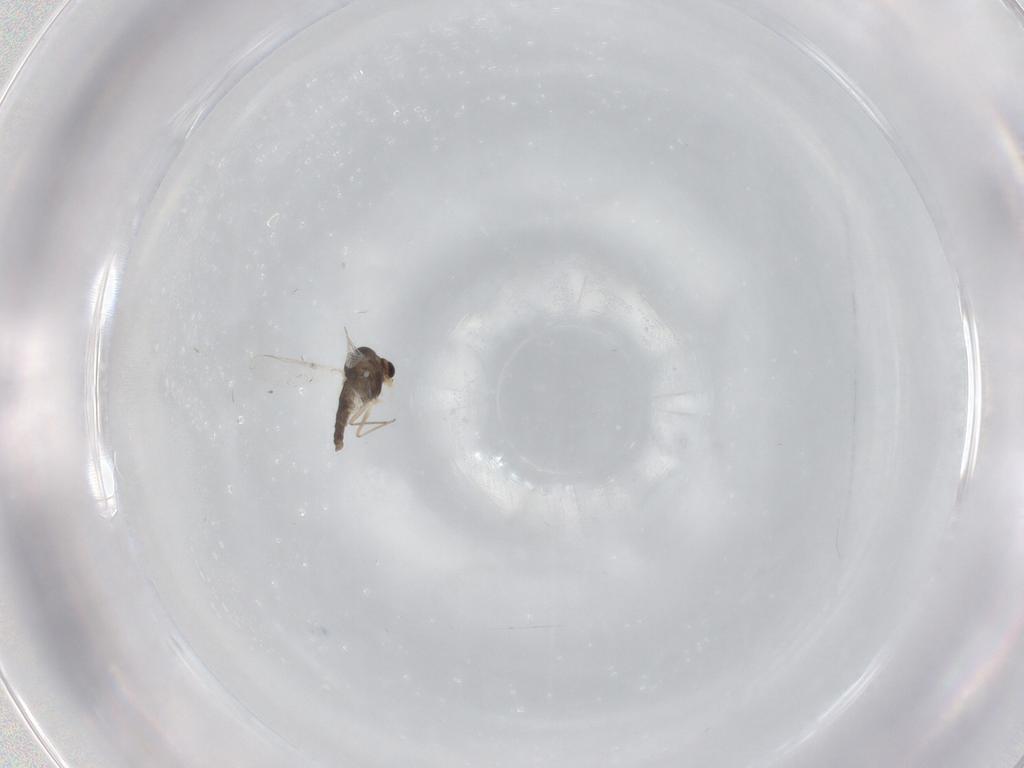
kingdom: Animalia
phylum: Arthropoda
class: Insecta
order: Diptera
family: Chironomidae
